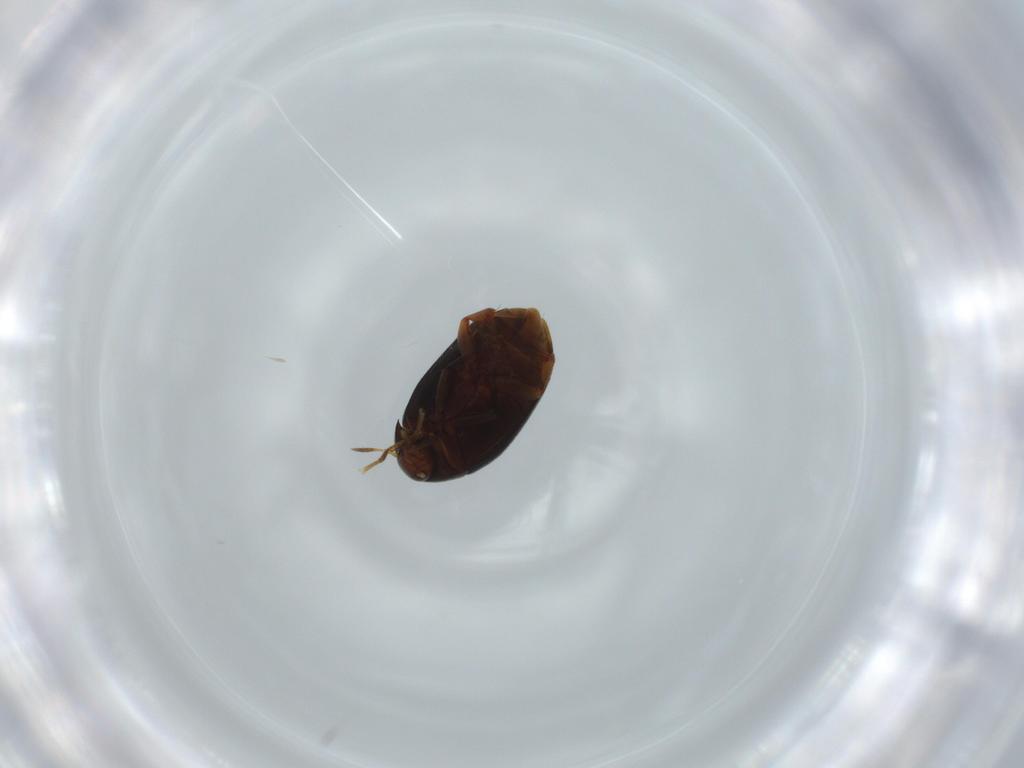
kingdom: Animalia
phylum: Arthropoda
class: Insecta
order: Coleoptera
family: Melandryidae
